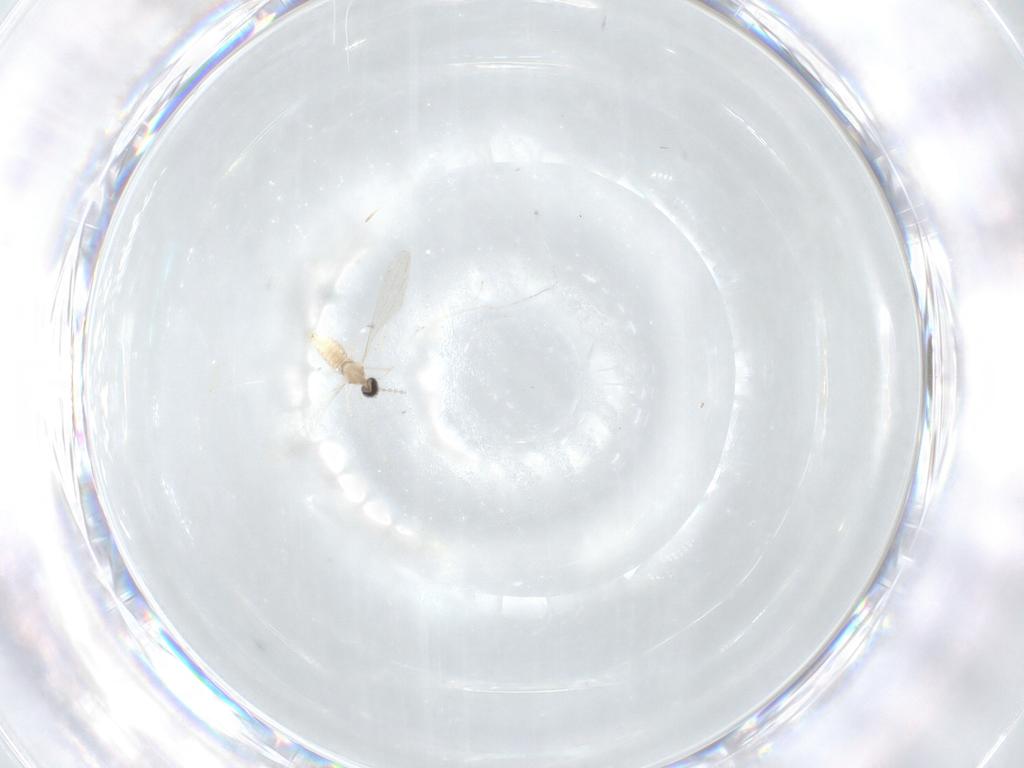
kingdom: Animalia
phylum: Arthropoda
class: Insecta
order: Diptera
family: Cecidomyiidae
